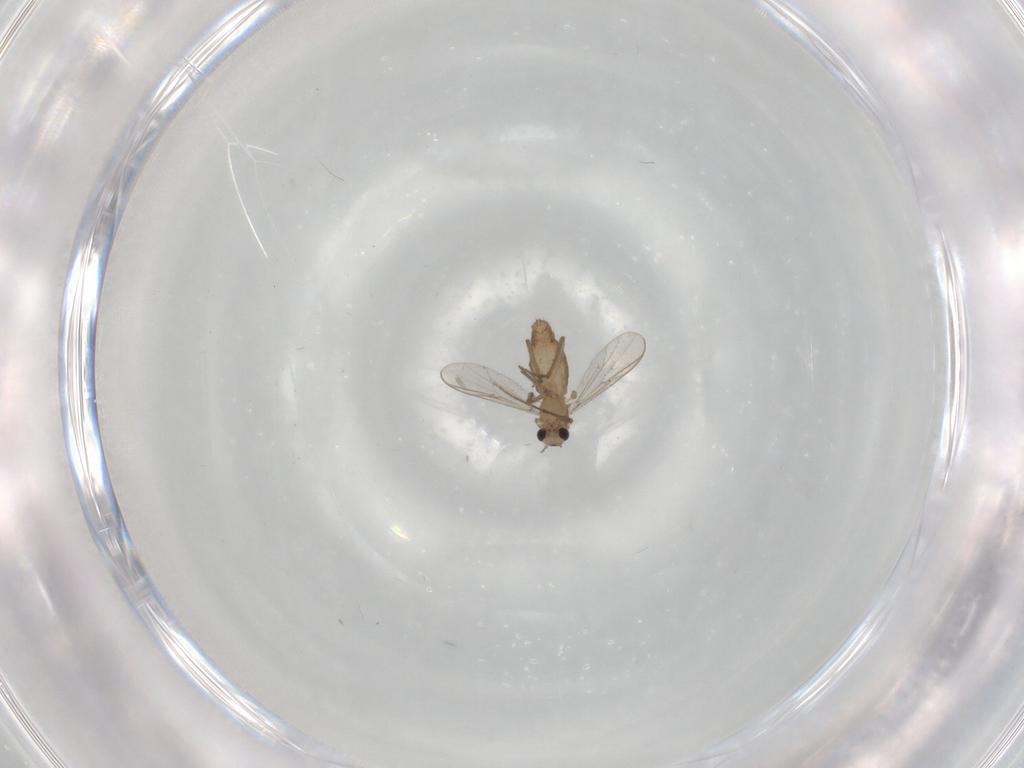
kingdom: Animalia
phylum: Arthropoda
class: Insecta
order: Diptera
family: Chironomidae
